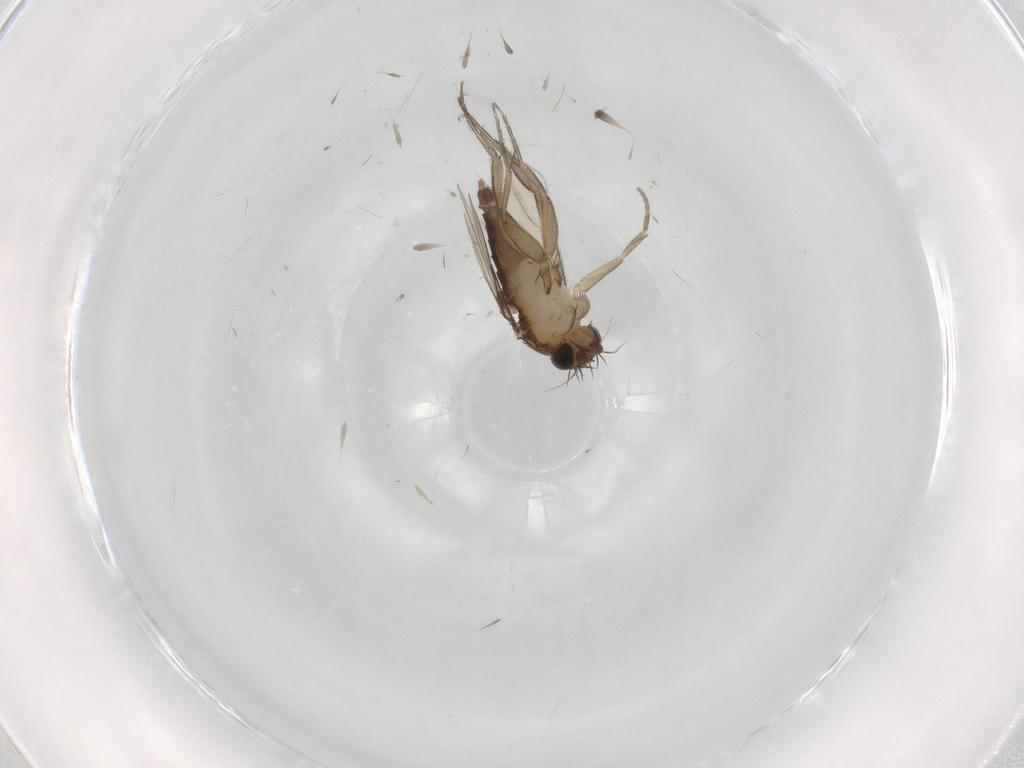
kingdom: Animalia
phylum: Arthropoda
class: Insecta
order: Diptera
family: Phoridae
